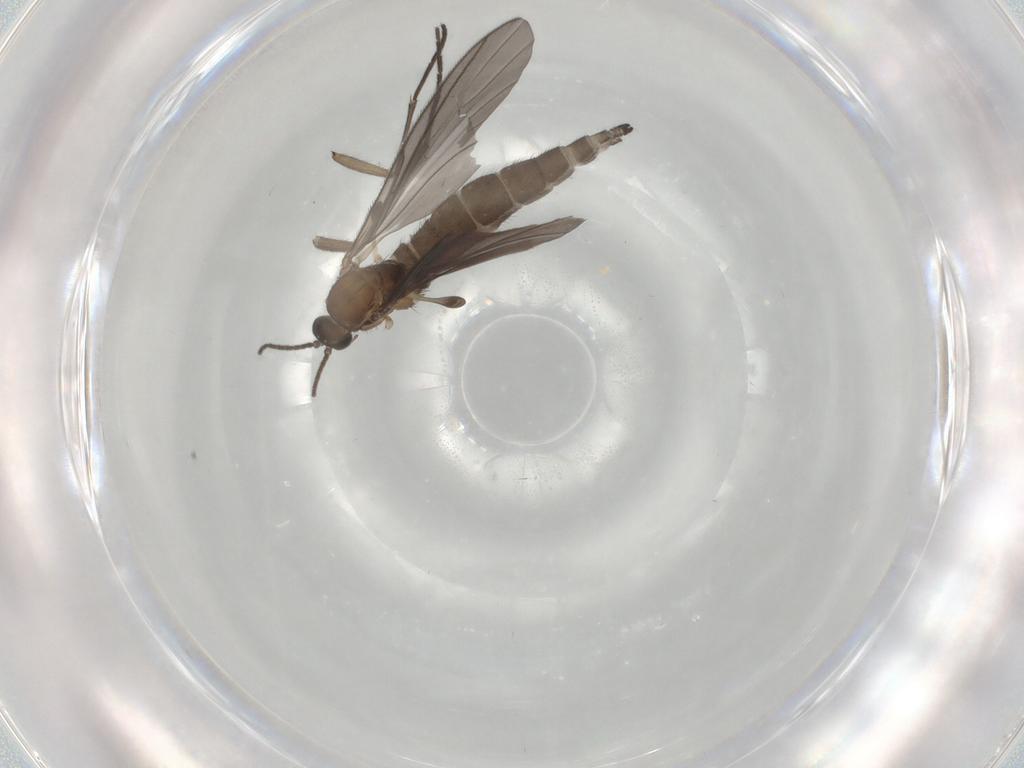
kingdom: Animalia
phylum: Arthropoda
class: Insecta
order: Diptera
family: Sciaridae
